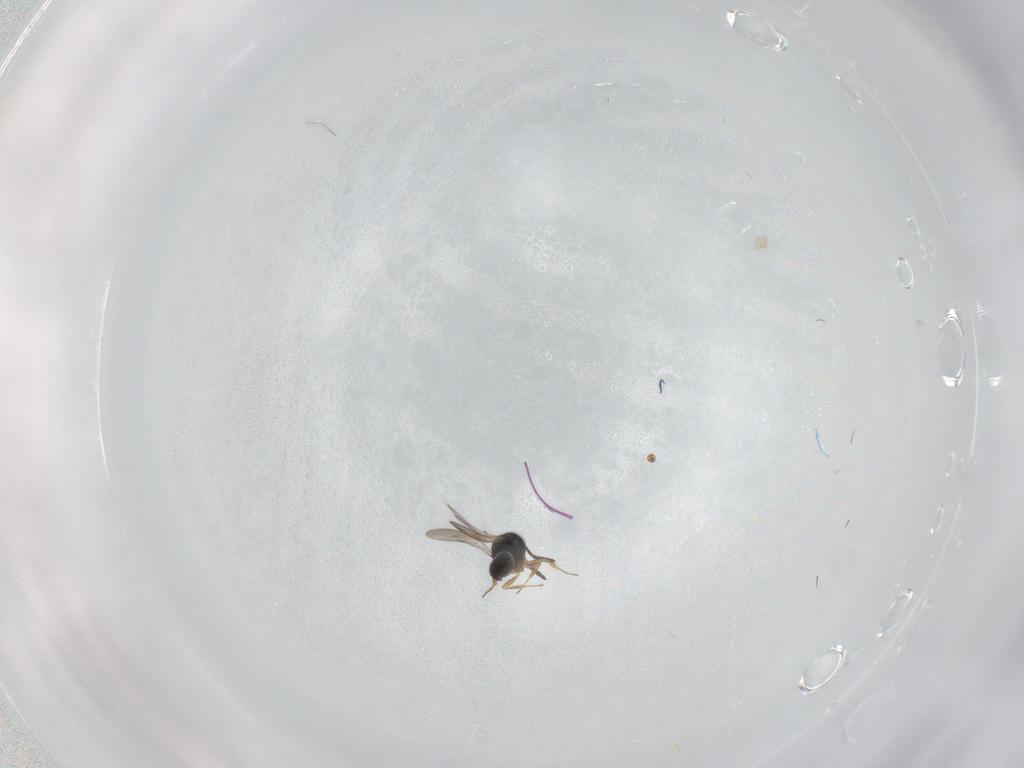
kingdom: Animalia
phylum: Arthropoda
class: Insecta
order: Hymenoptera
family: Scelionidae
